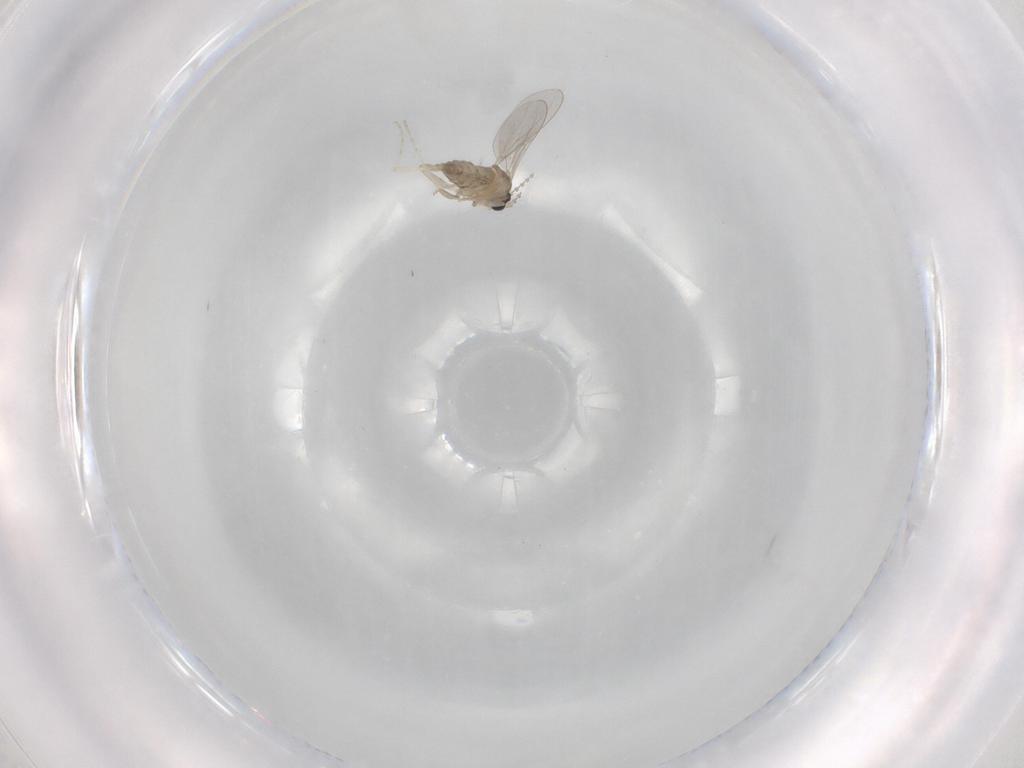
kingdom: Animalia
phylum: Arthropoda
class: Insecta
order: Diptera
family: Cecidomyiidae
